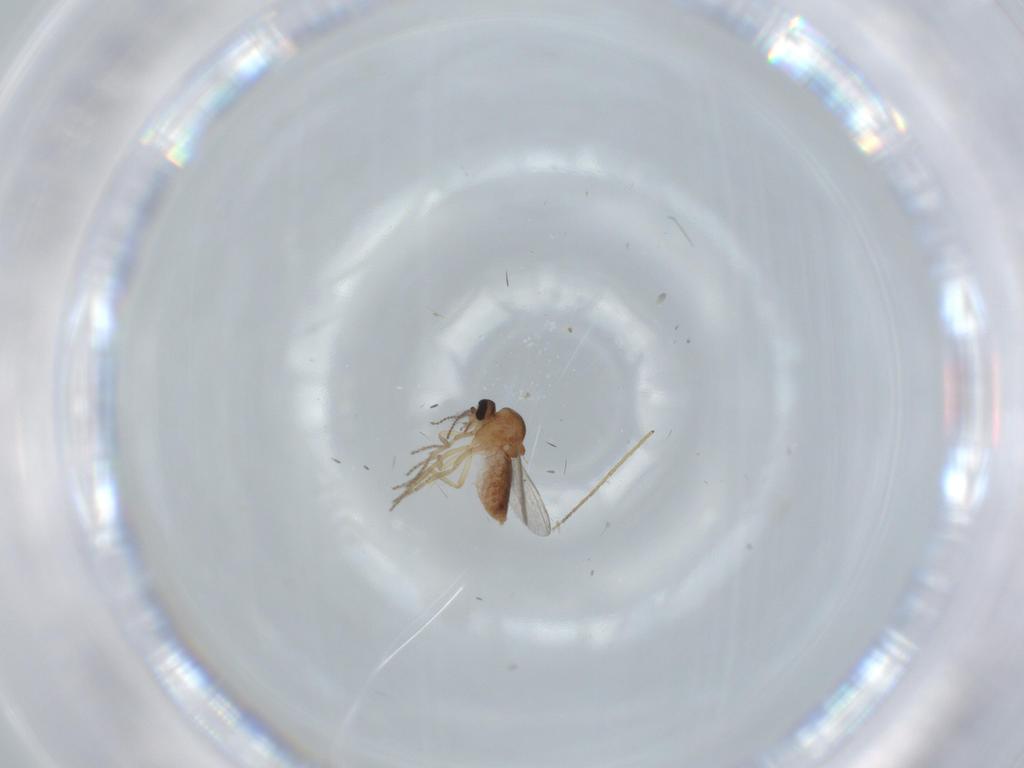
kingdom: Animalia
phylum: Arthropoda
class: Insecta
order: Diptera
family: Ceratopogonidae
